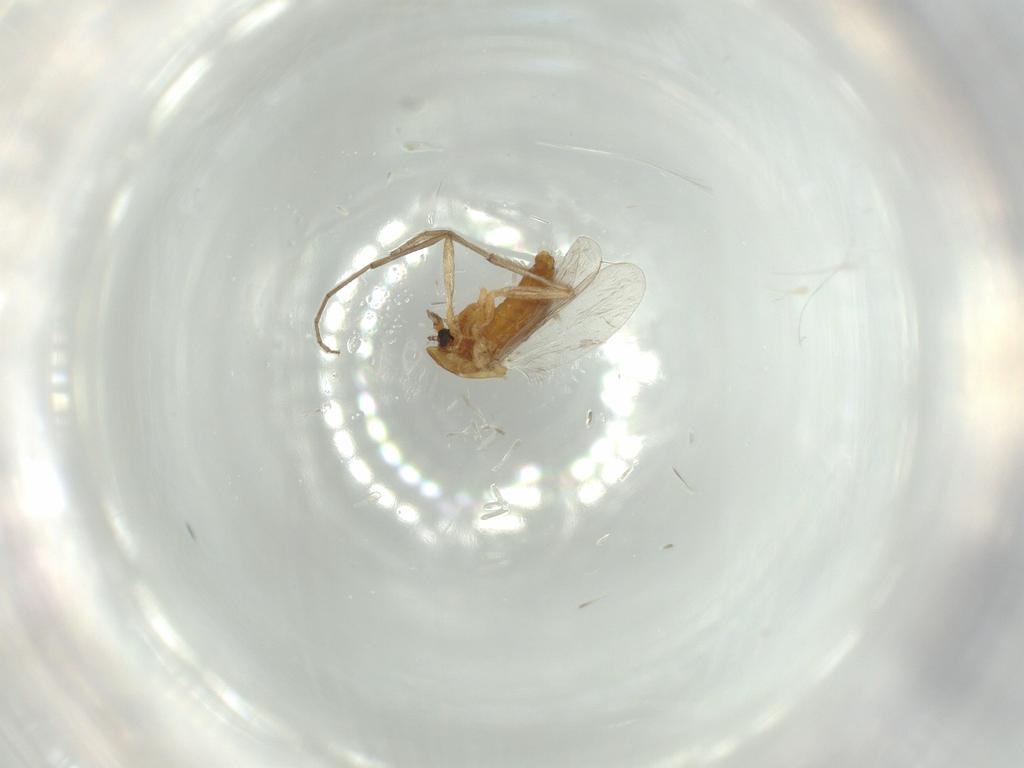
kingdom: Animalia
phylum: Arthropoda
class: Insecta
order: Diptera
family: Chironomidae
